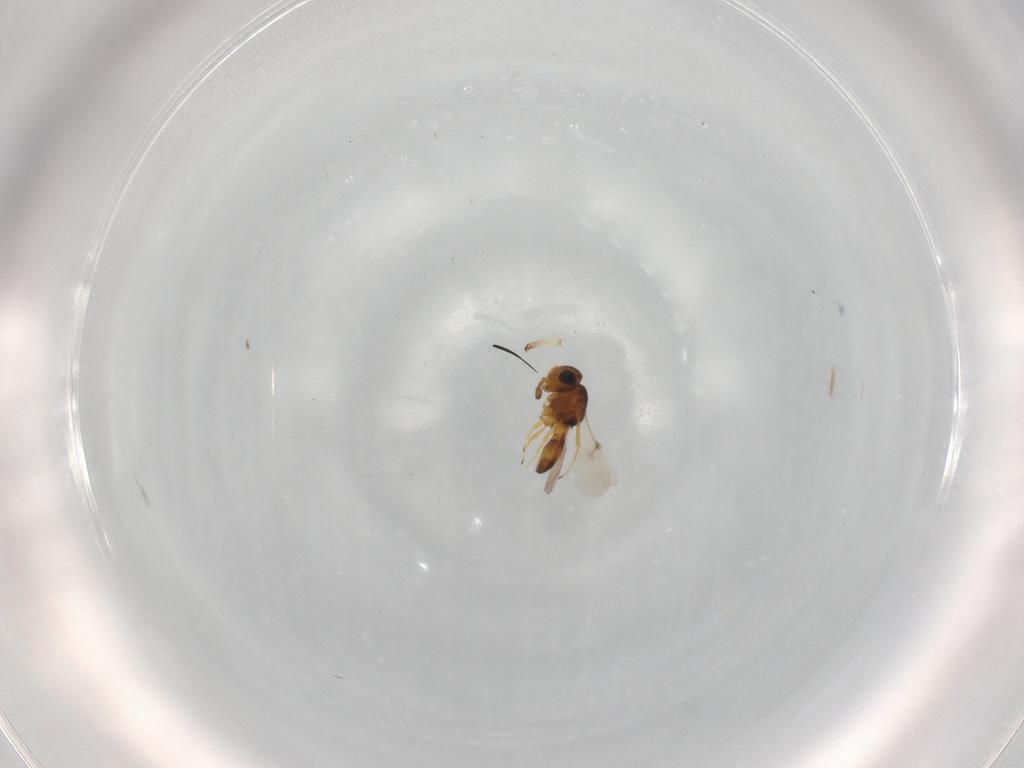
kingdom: Animalia
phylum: Arthropoda
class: Insecta
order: Hymenoptera
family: Scelionidae
